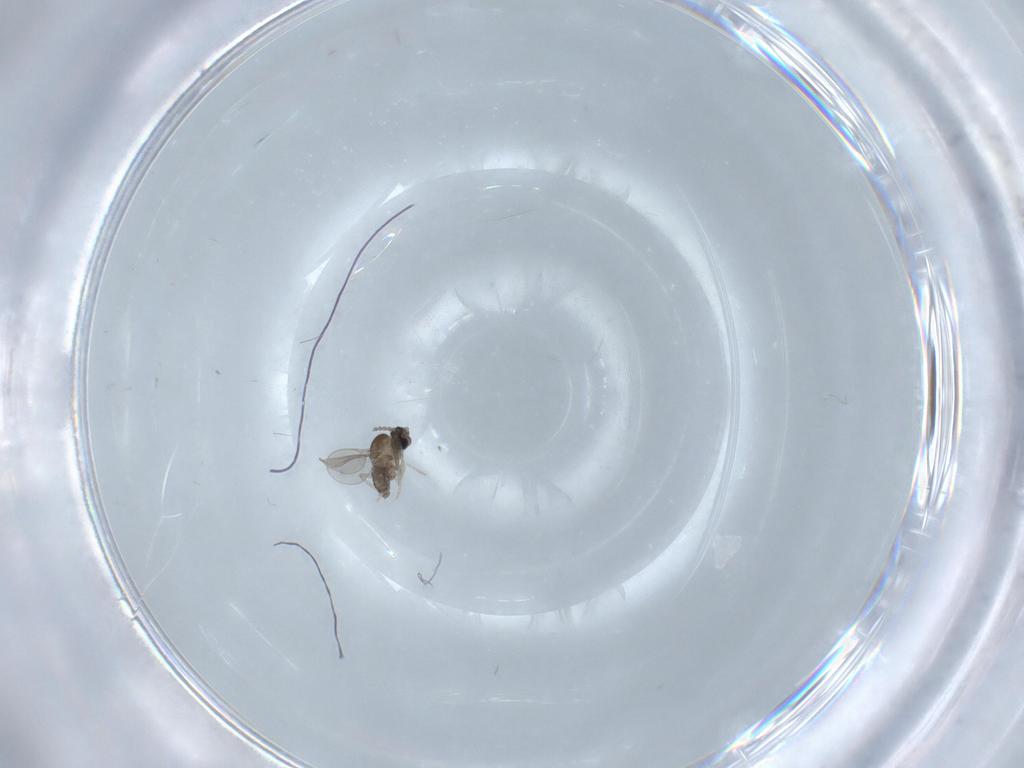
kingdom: Animalia
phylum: Arthropoda
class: Insecta
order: Diptera
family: Cecidomyiidae
